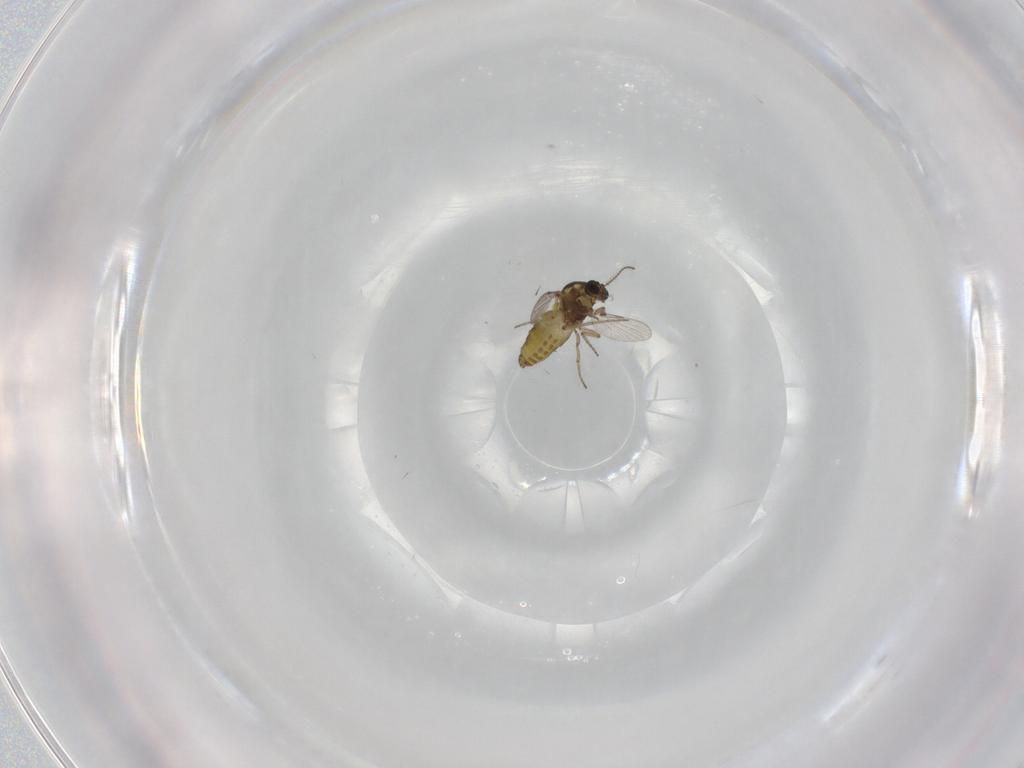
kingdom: Animalia
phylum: Arthropoda
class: Insecta
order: Diptera
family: Ceratopogonidae
